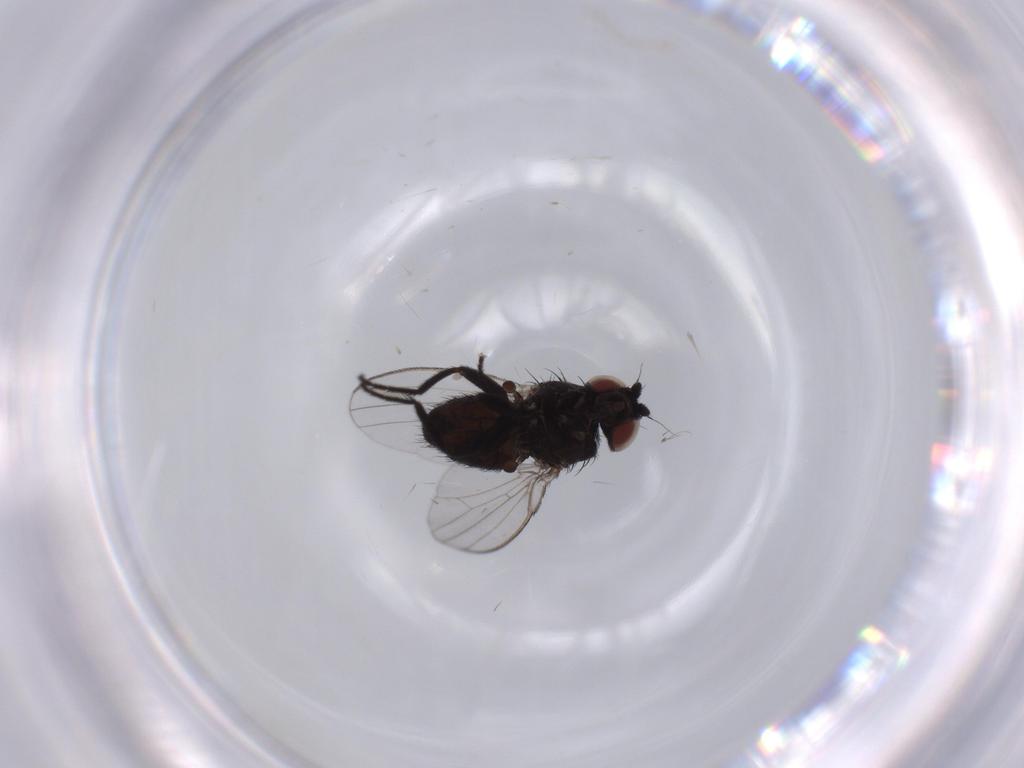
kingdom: Animalia
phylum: Arthropoda
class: Insecta
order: Diptera
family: Milichiidae
